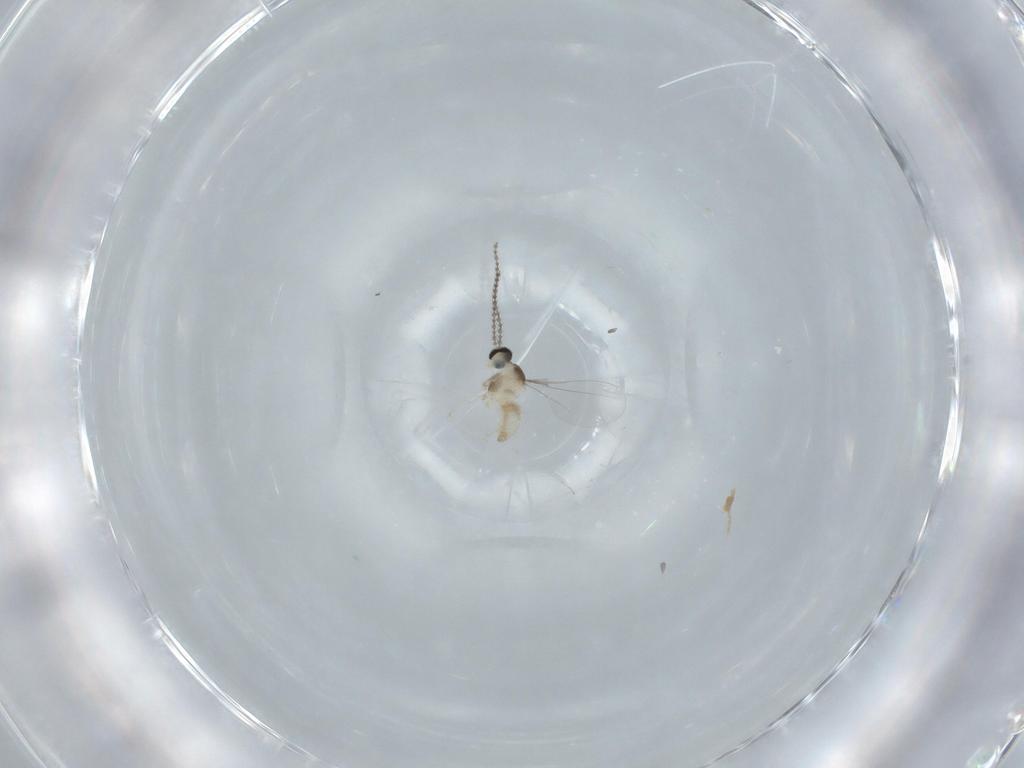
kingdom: Animalia
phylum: Arthropoda
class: Insecta
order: Diptera
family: Cecidomyiidae
